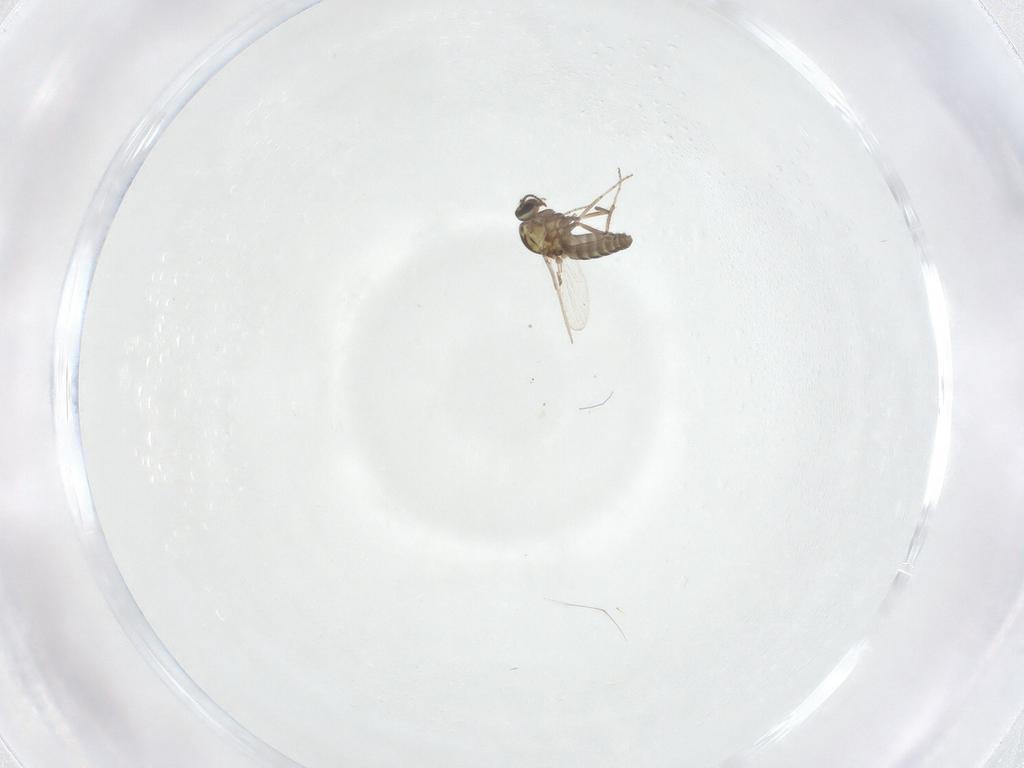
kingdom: Animalia
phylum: Arthropoda
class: Insecta
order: Diptera
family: Ceratopogonidae
